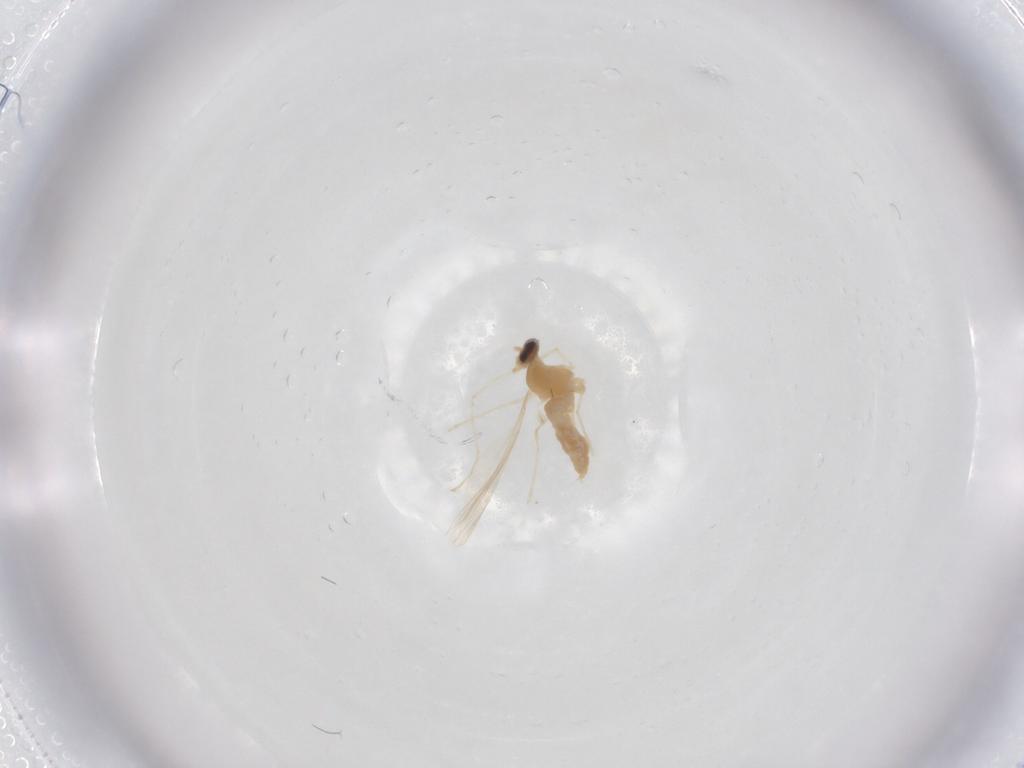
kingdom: Animalia
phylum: Arthropoda
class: Insecta
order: Diptera
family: Cecidomyiidae
